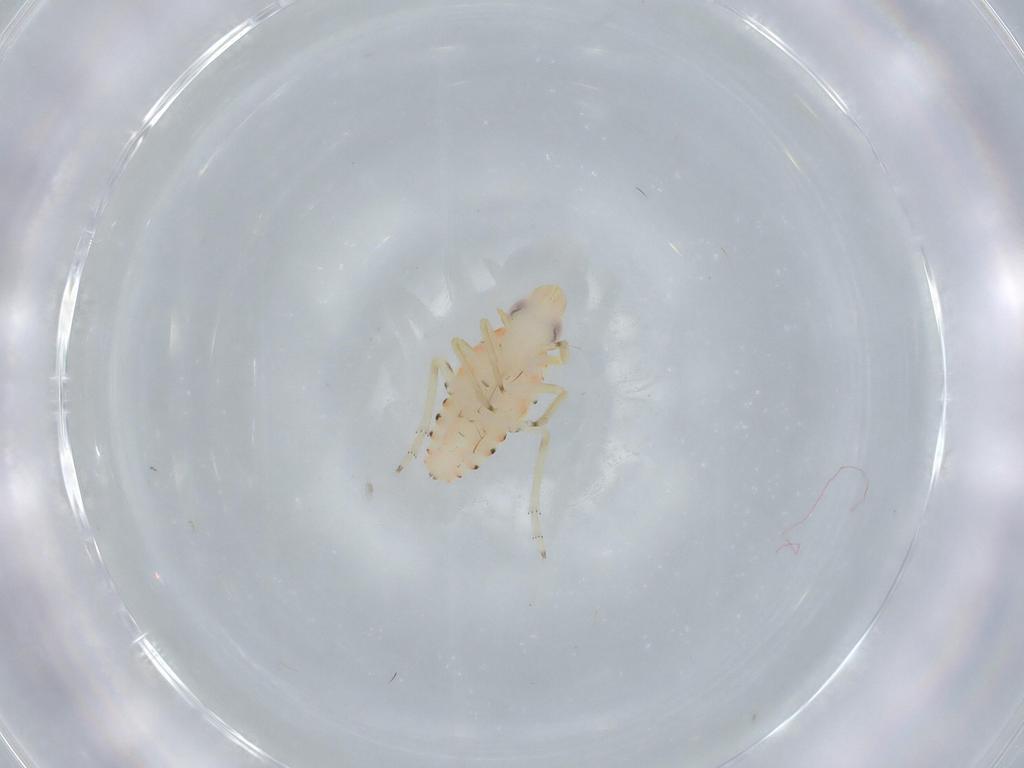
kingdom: Animalia
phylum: Arthropoda
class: Insecta
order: Hemiptera
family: Tropiduchidae
